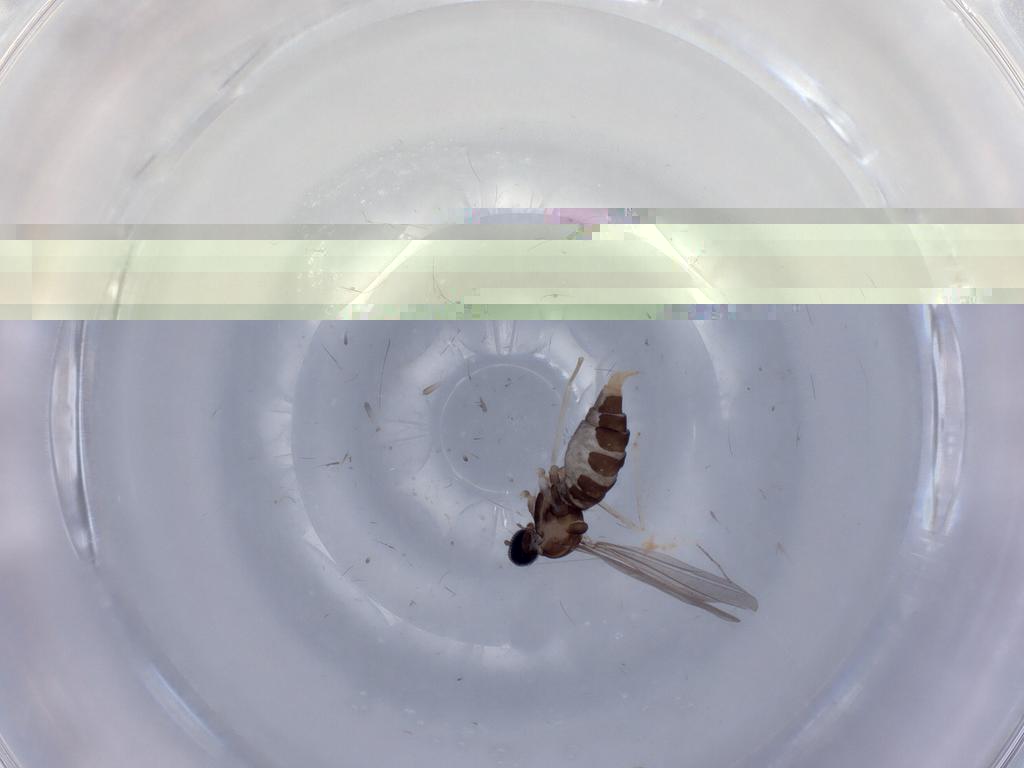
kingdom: Animalia
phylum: Arthropoda
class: Insecta
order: Diptera
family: Cecidomyiidae
